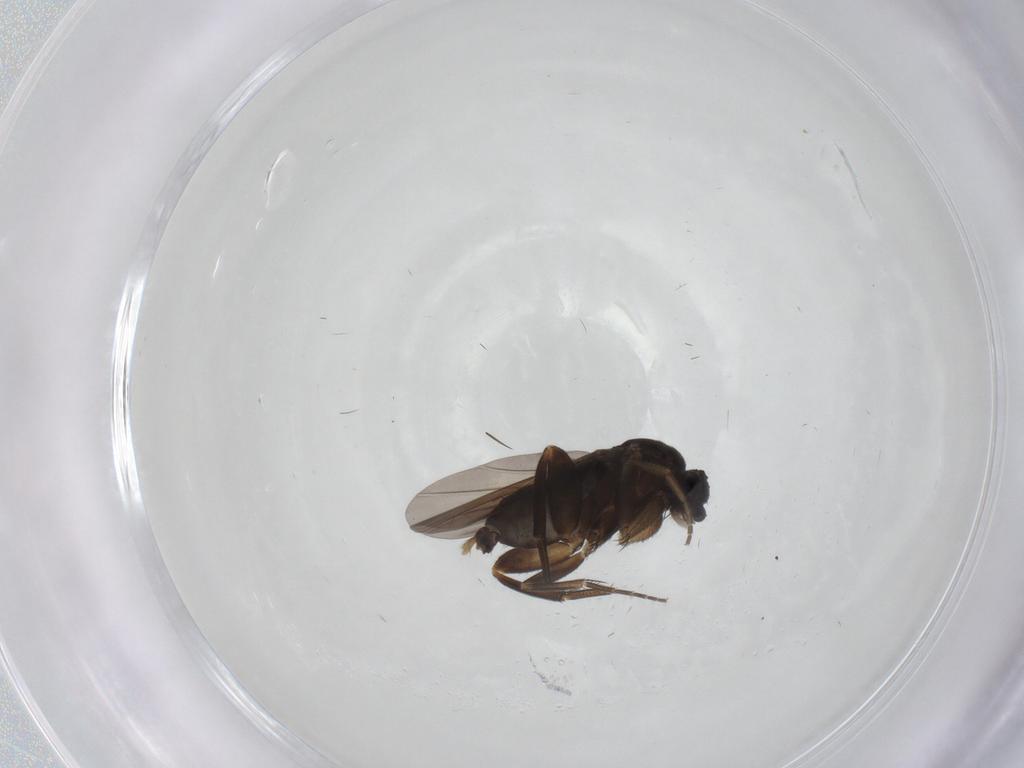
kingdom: Animalia
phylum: Arthropoda
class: Insecta
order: Diptera
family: Phoridae
